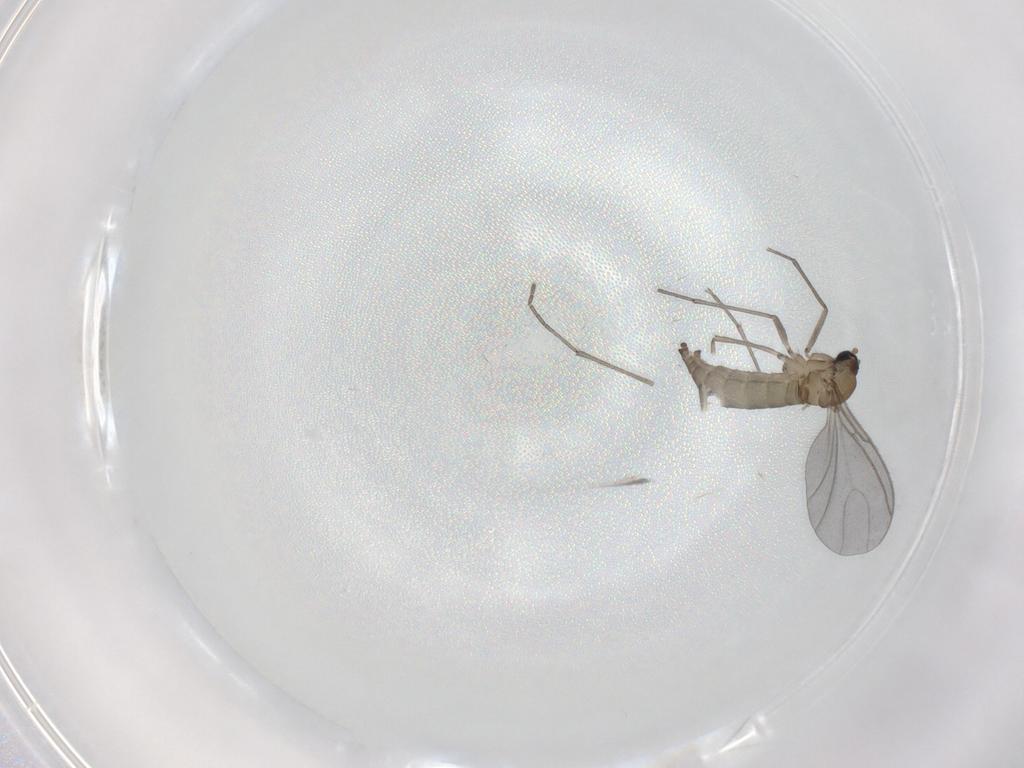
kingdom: Animalia
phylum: Arthropoda
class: Insecta
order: Diptera
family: Sciaridae
